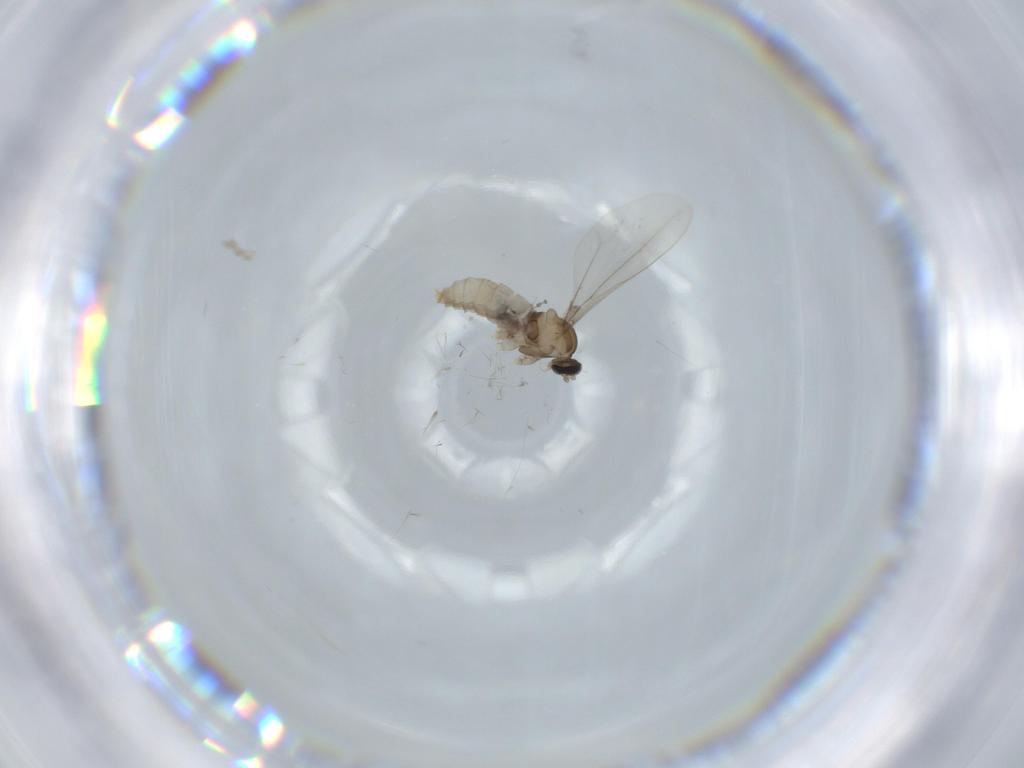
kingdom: Animalia
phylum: Arthropoda
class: Insecta
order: Diptera
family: Cecidomyiidae
